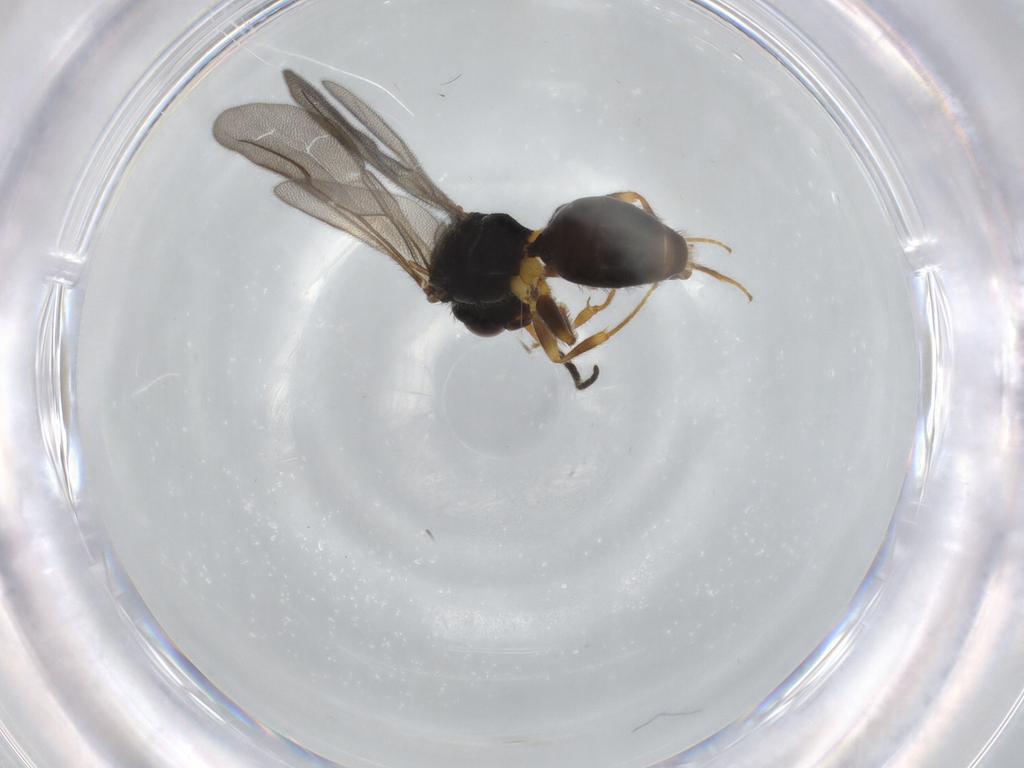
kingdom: Animalia
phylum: Arthropoda
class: Insecta
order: Hymenoptera
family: Bethylidae
